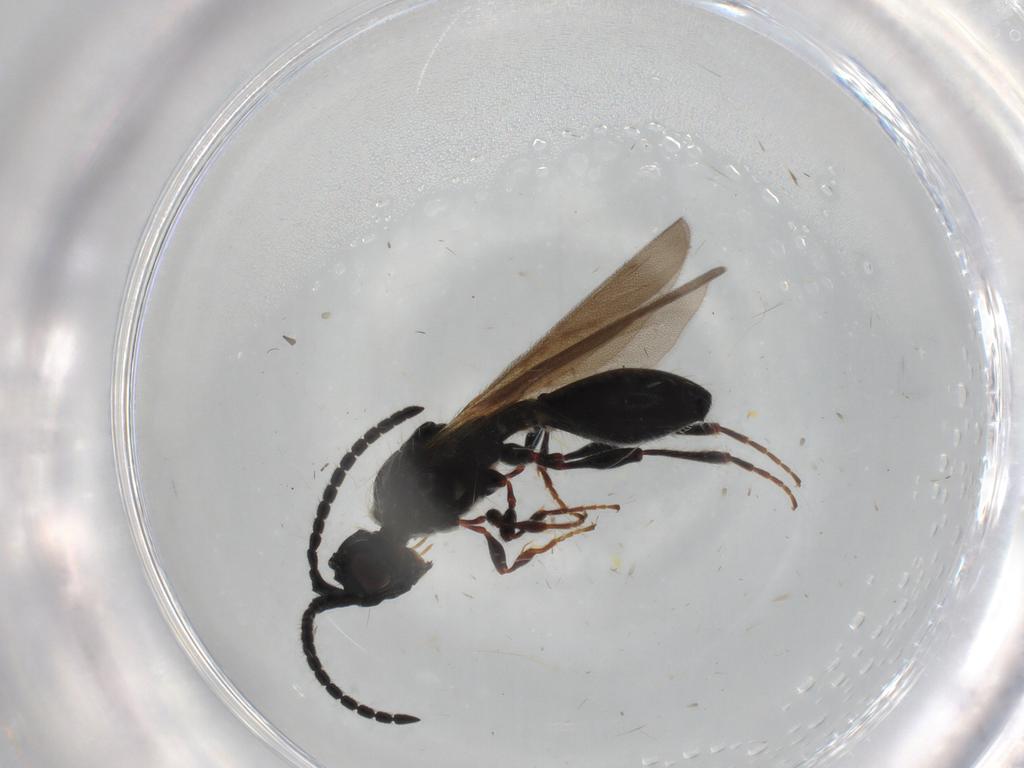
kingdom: Animalia
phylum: Arthropoda
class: Insecta
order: Hymenoptera
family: Diapriidae
